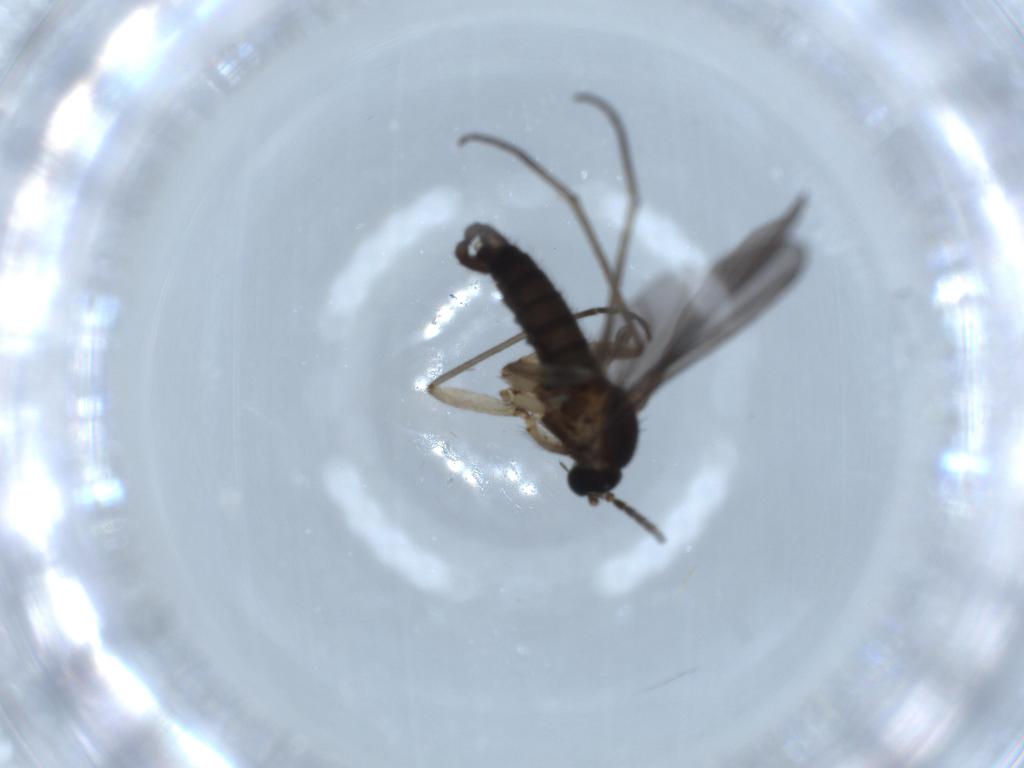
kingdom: Animalia
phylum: Arthropoda
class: Insecta
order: Diptera
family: Sciaridae
